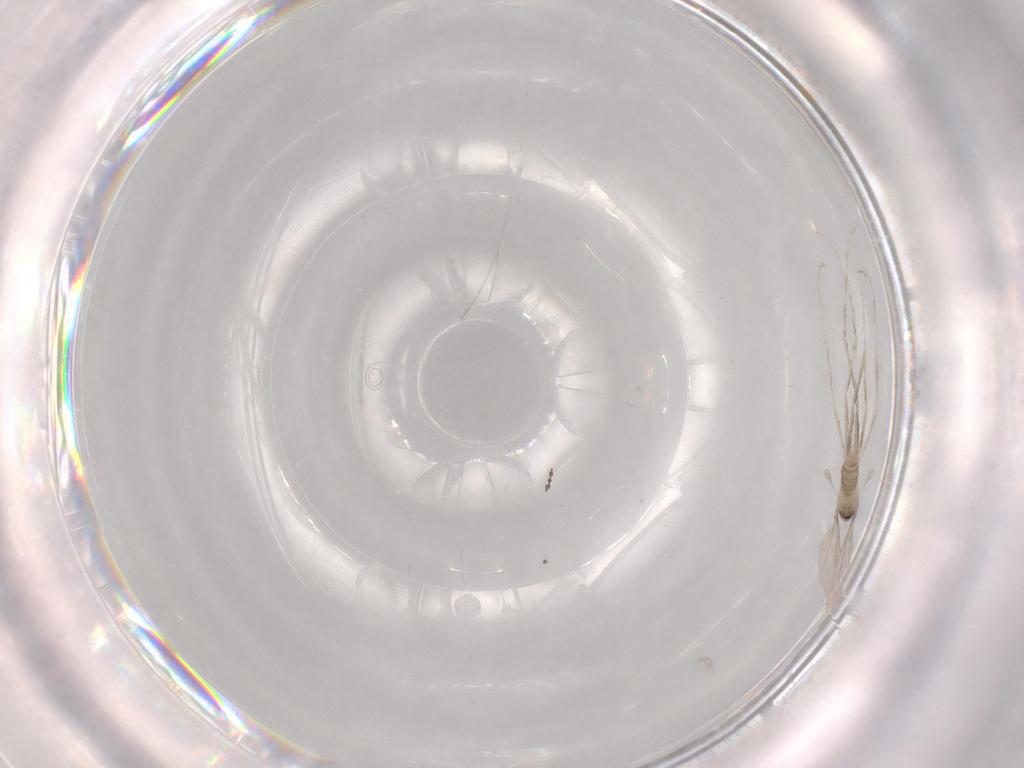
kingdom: Animalia
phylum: Arthropoda
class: Insecta
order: Diptera
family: Cecidomyiidae
